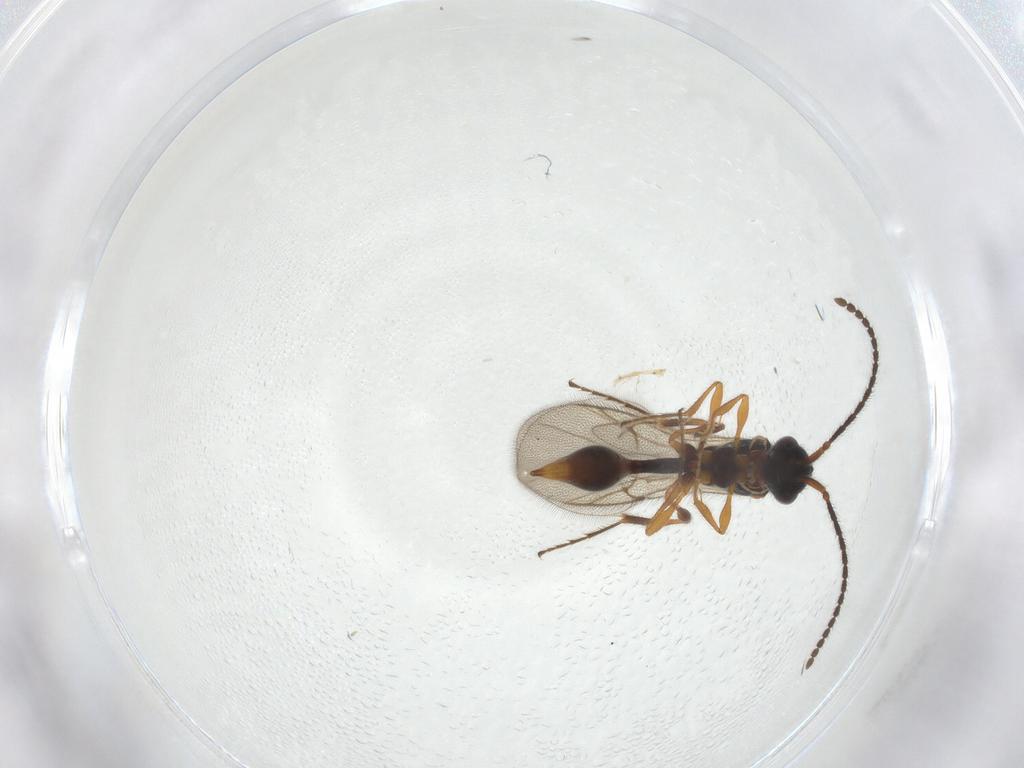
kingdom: Animalia
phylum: Arthropoda
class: Insecta
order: Hymenoptera
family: Diapriidae
